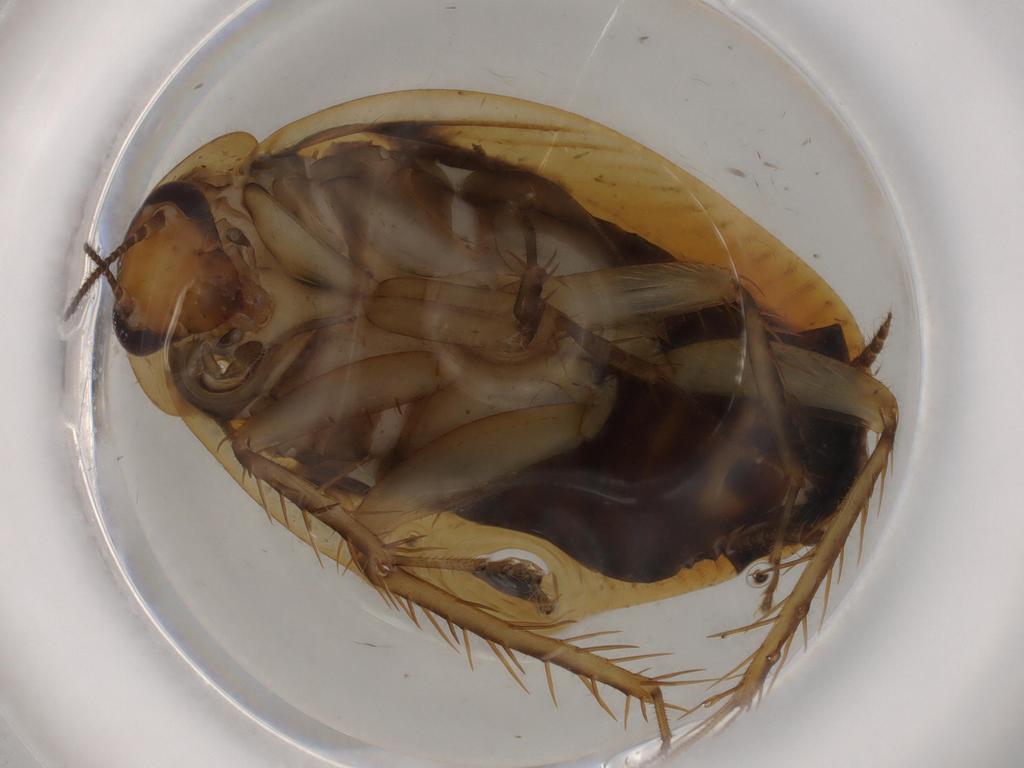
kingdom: Animalia
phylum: Arthropoda
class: Insecta
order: Blattodea
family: Ectobiidae
